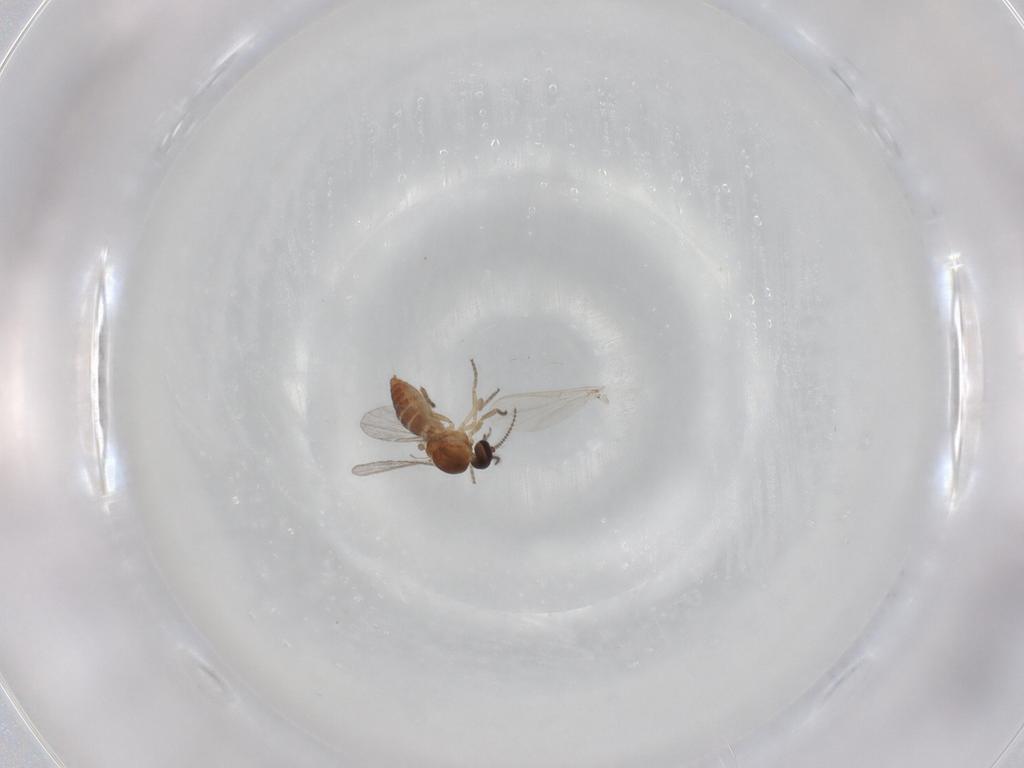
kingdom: Animalia
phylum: Arthropoda
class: Insecta
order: Diptera
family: Ceratopogonidae
